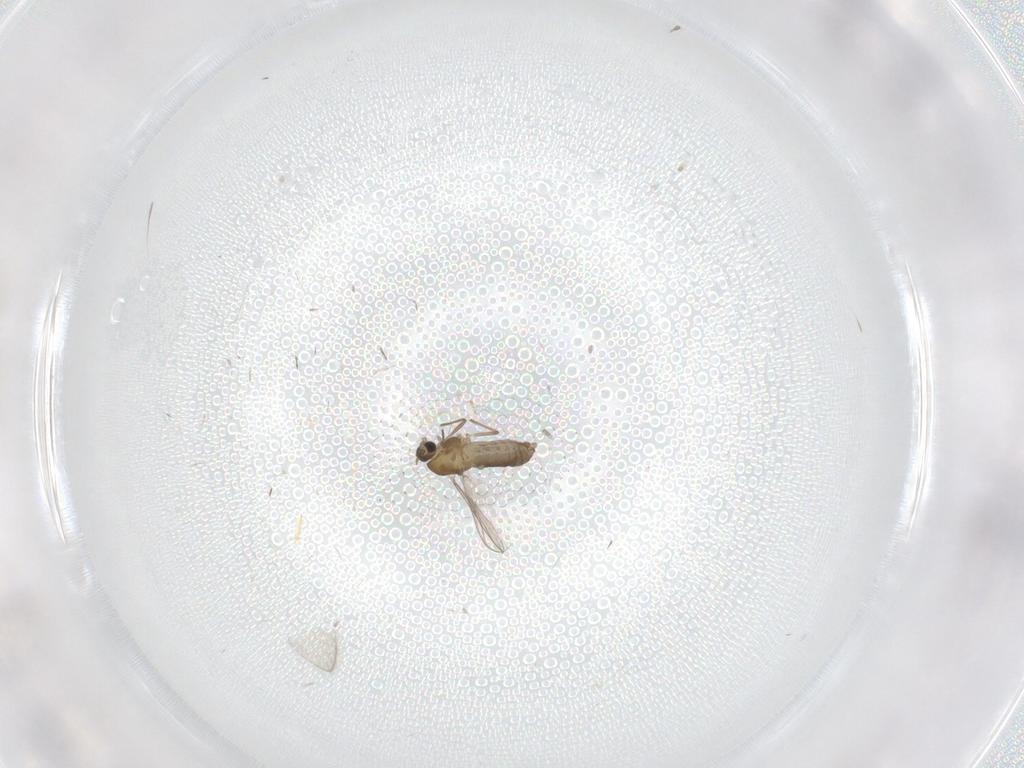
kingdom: Animalia
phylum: Arthropoda
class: Insecta
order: Diptera
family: Chironomidae
